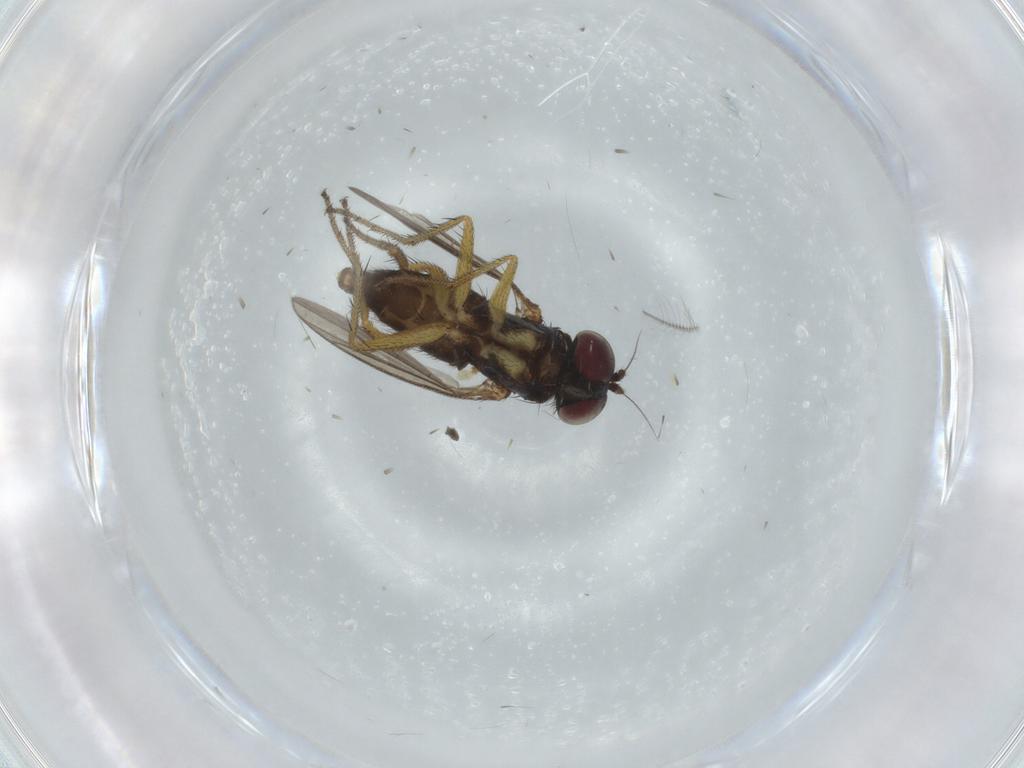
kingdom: Animalia
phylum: Arthropoda
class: Insecta
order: Diptera
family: Dolichopodidae
